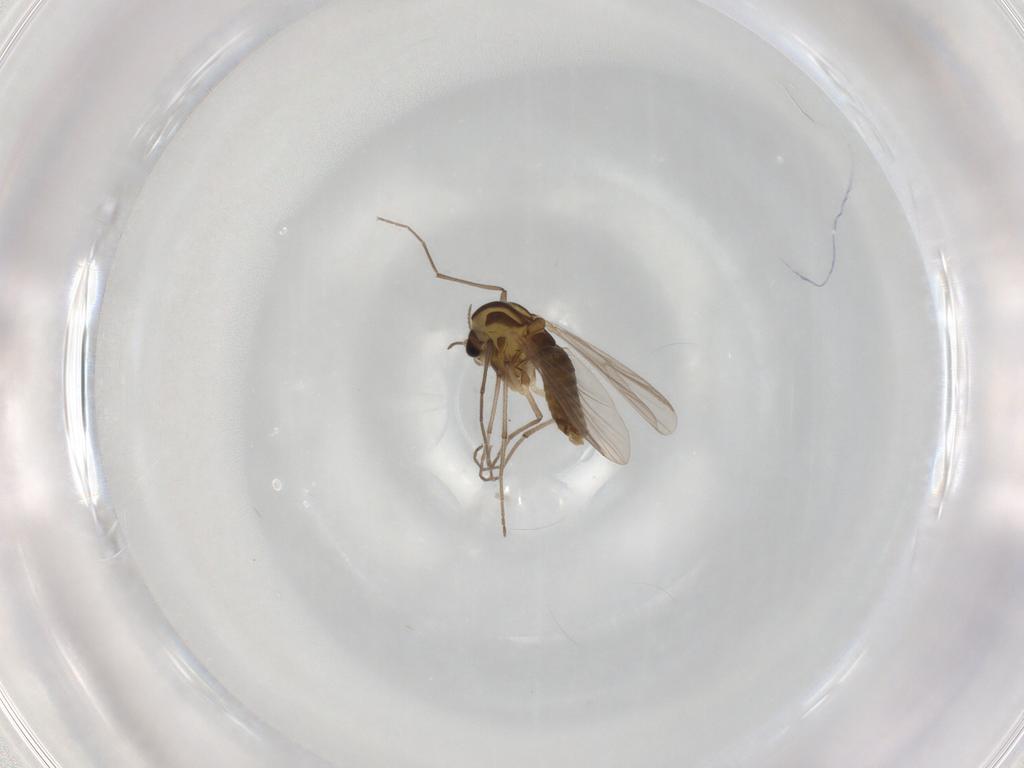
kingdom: Animalia
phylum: Arthropoda
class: Insecta
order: Diptera
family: Chironomidae
